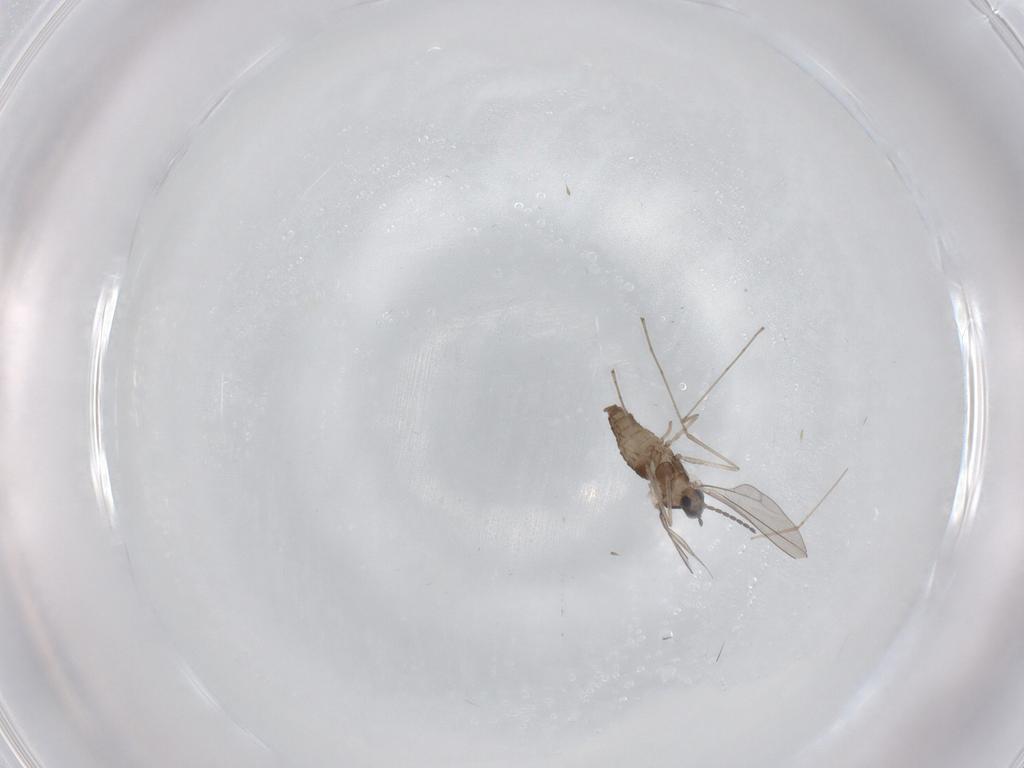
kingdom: Animalia
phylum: Arthropoda
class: Insecta
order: Diptera
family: Cecidomyiidae
